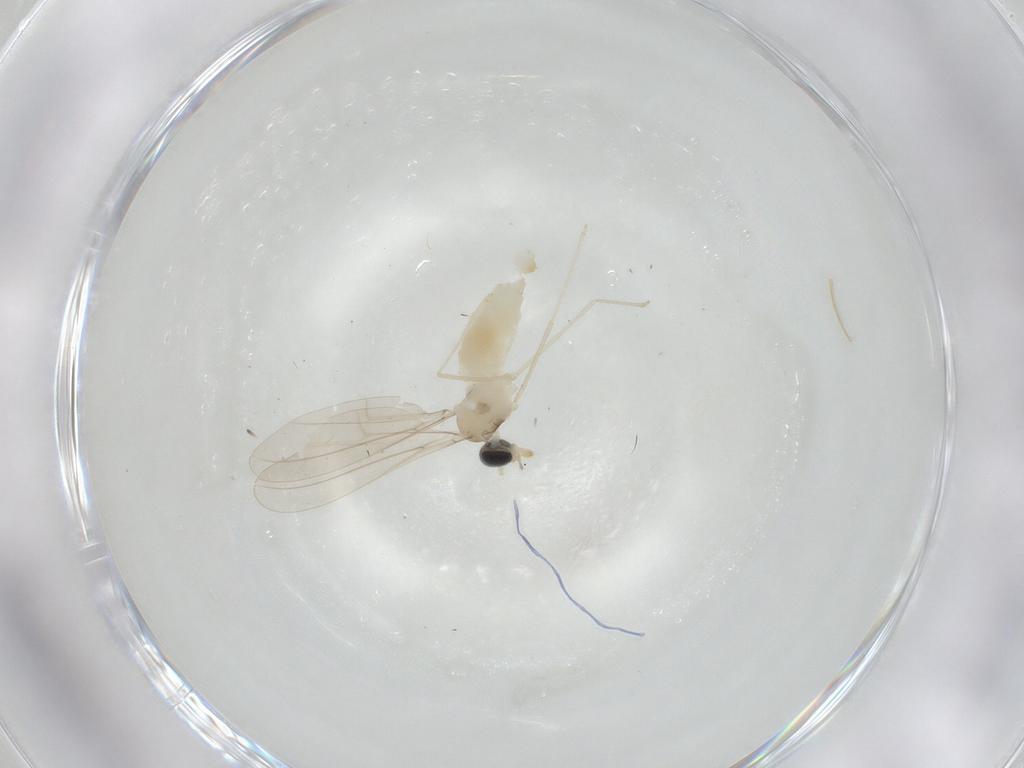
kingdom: Animalia
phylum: Arthropoda
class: Insecta
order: Diptera
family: Cecidomyiidae
